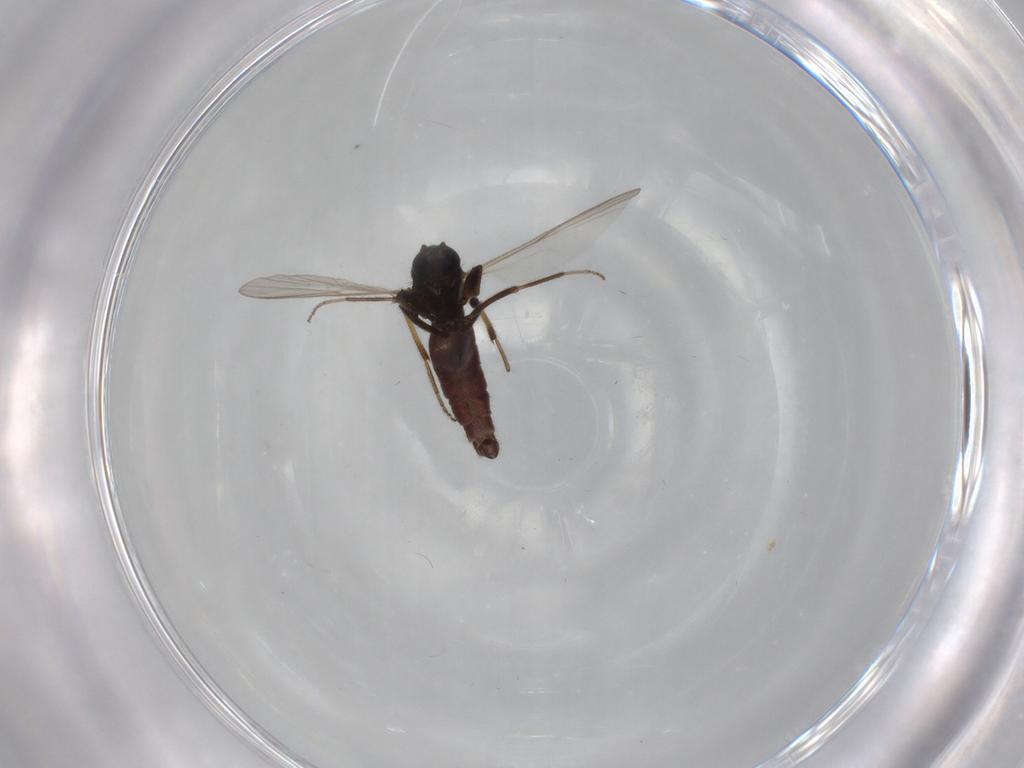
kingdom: Animalia
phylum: Arthropoda
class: Insecta
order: Diptera
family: Ceratopogonidae
